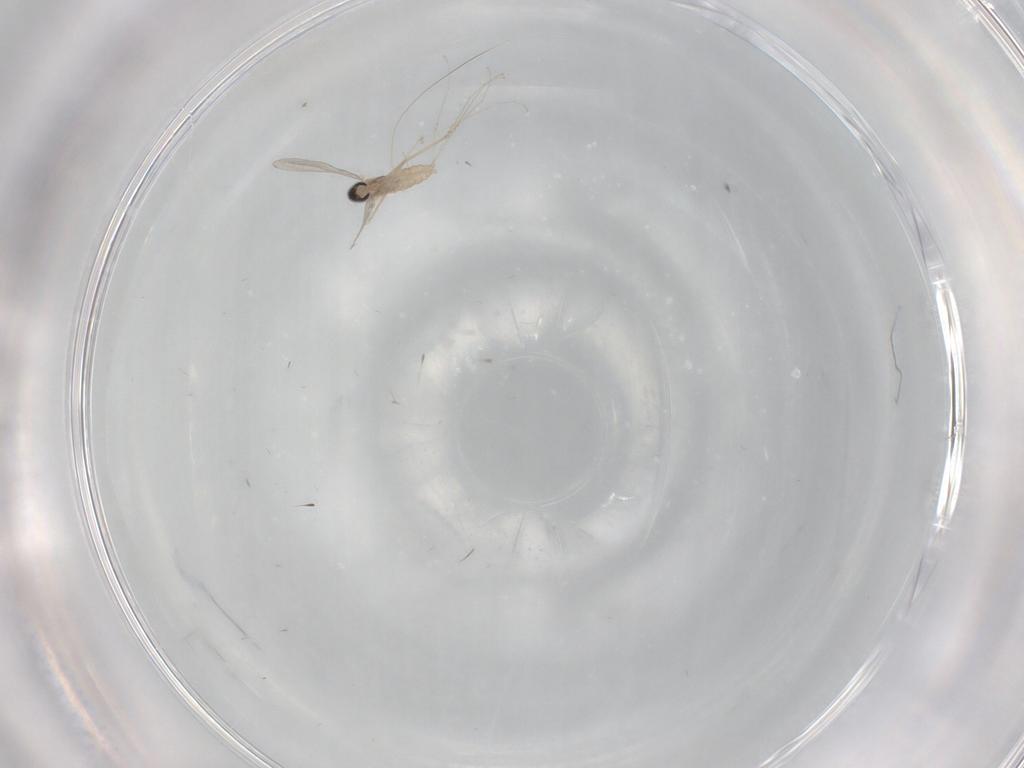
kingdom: Animalia
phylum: Arthropoda
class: Insecta
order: Diptera
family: Chironomidae
